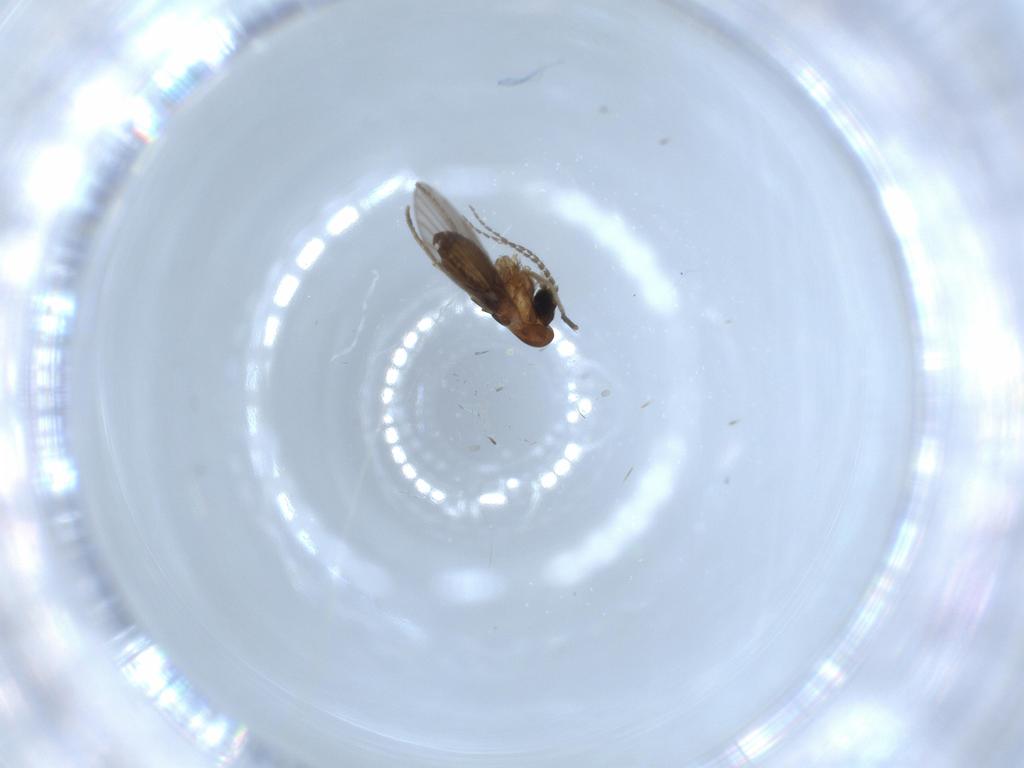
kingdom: Animalia
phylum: Arthropoda
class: Insecta
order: Diptera
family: Psychodidae
